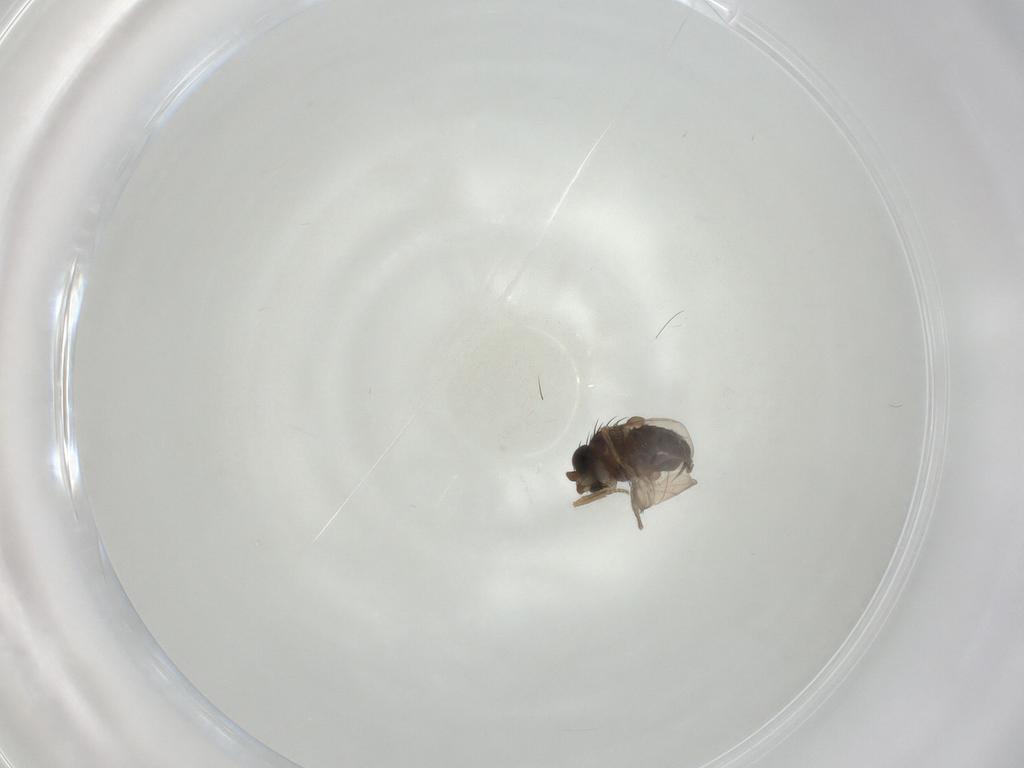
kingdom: Animalia
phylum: Arthropoda
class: Insecta
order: Diptera
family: Phoridae
